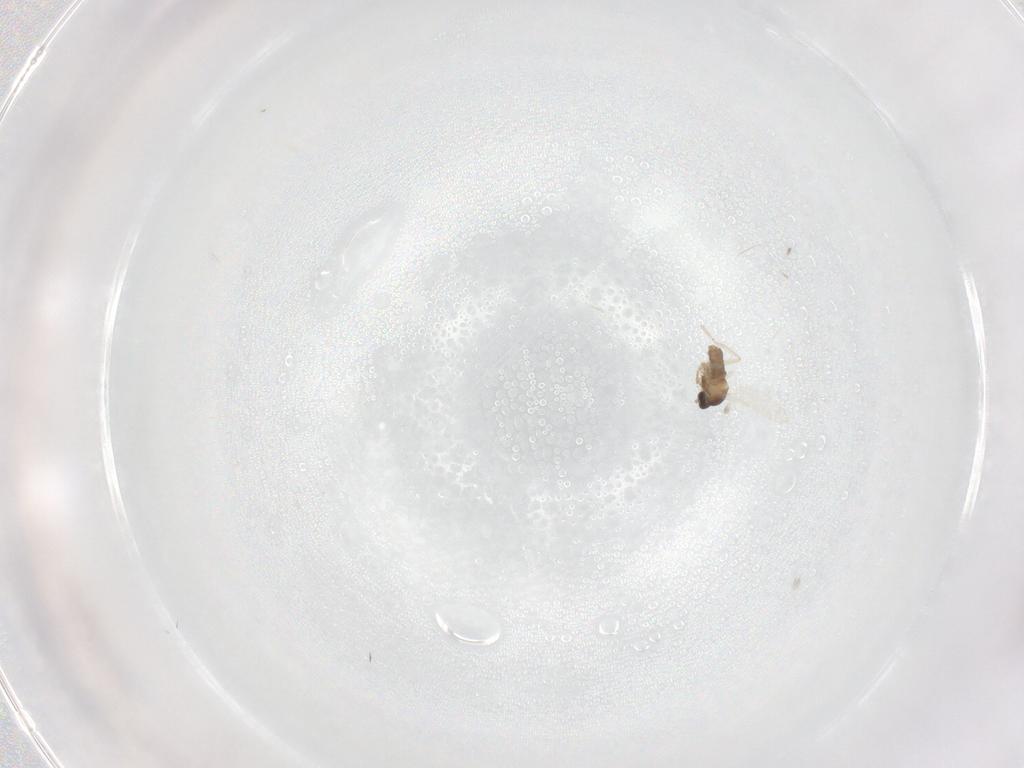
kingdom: Animalia
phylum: Arthropoda
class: Insecta
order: Diptera
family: Cecidomyiidae
